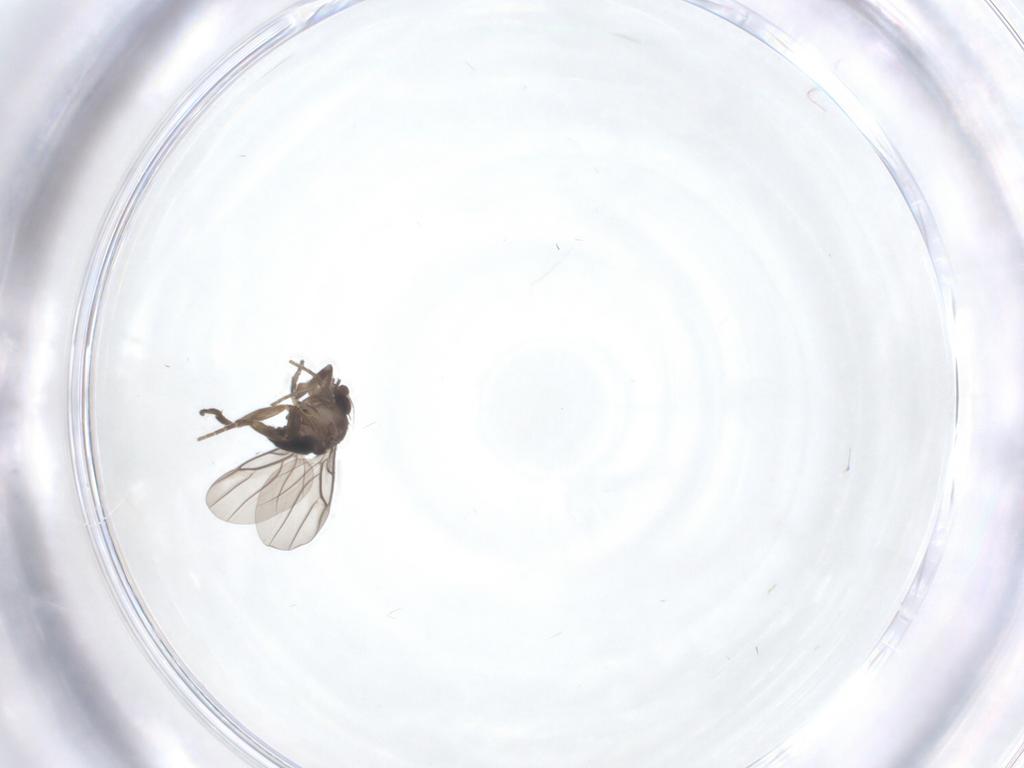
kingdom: Animalia
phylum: Arthropoda
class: Insecta
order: Diptera
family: Phoridae
